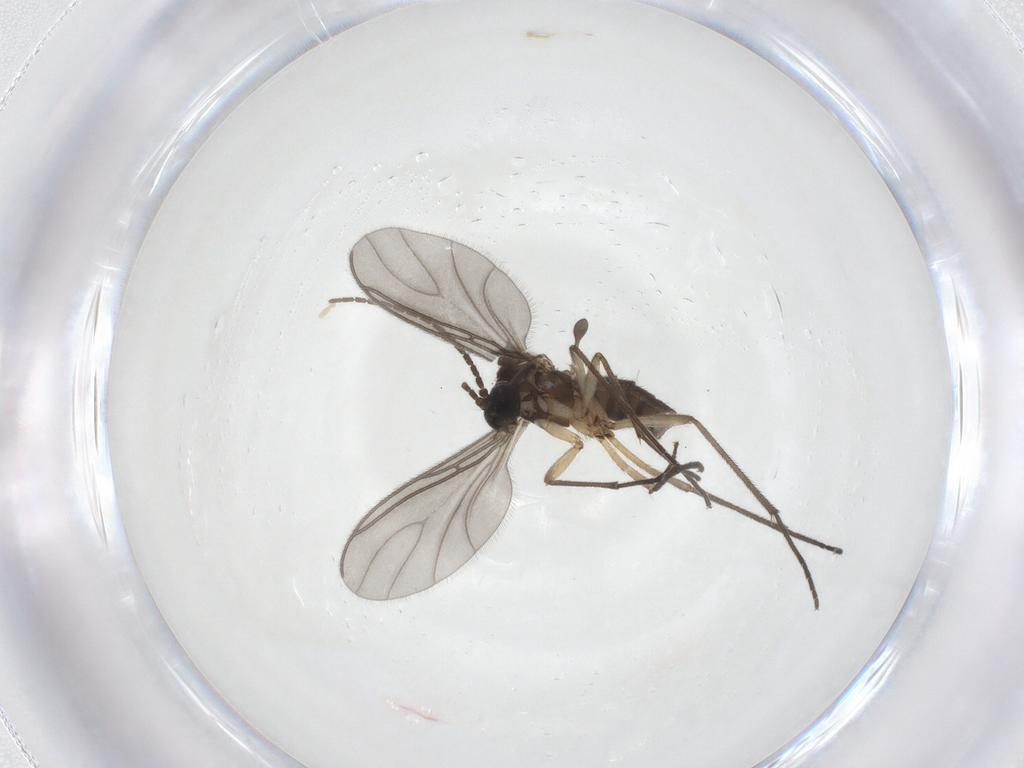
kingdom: Animalia
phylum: Arthropoda
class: Insecta
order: Diptera
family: Sciaridae
